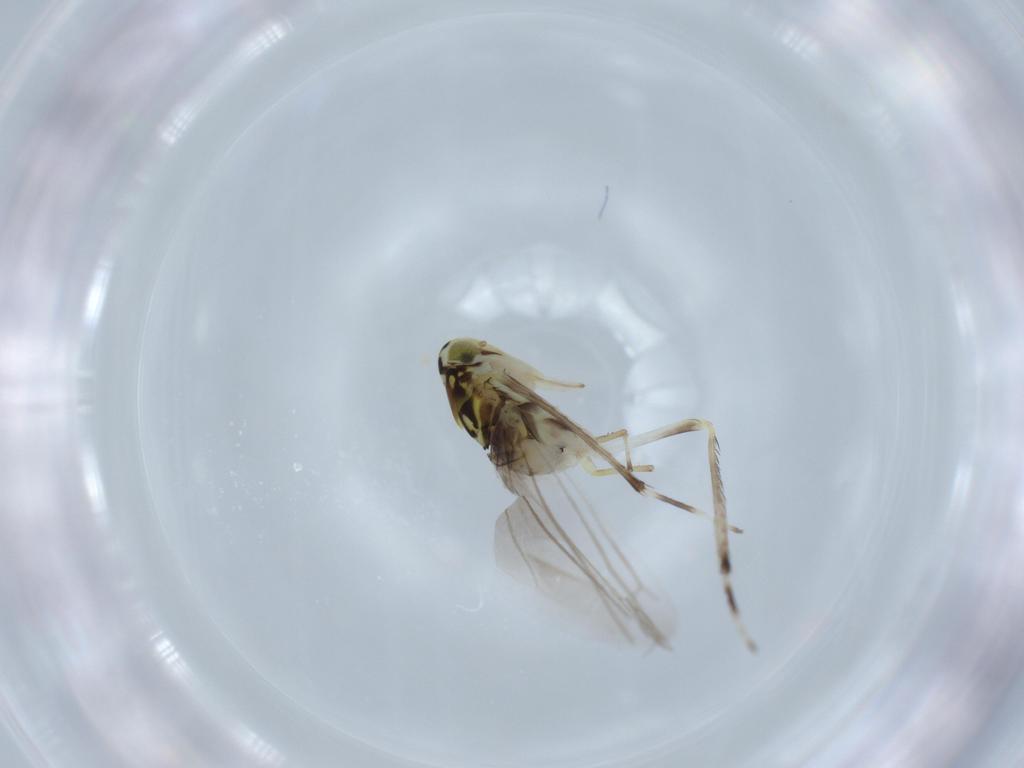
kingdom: Animalia
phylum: Arthropoda
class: Insecta
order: Hemiptera
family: Cicadellidae
